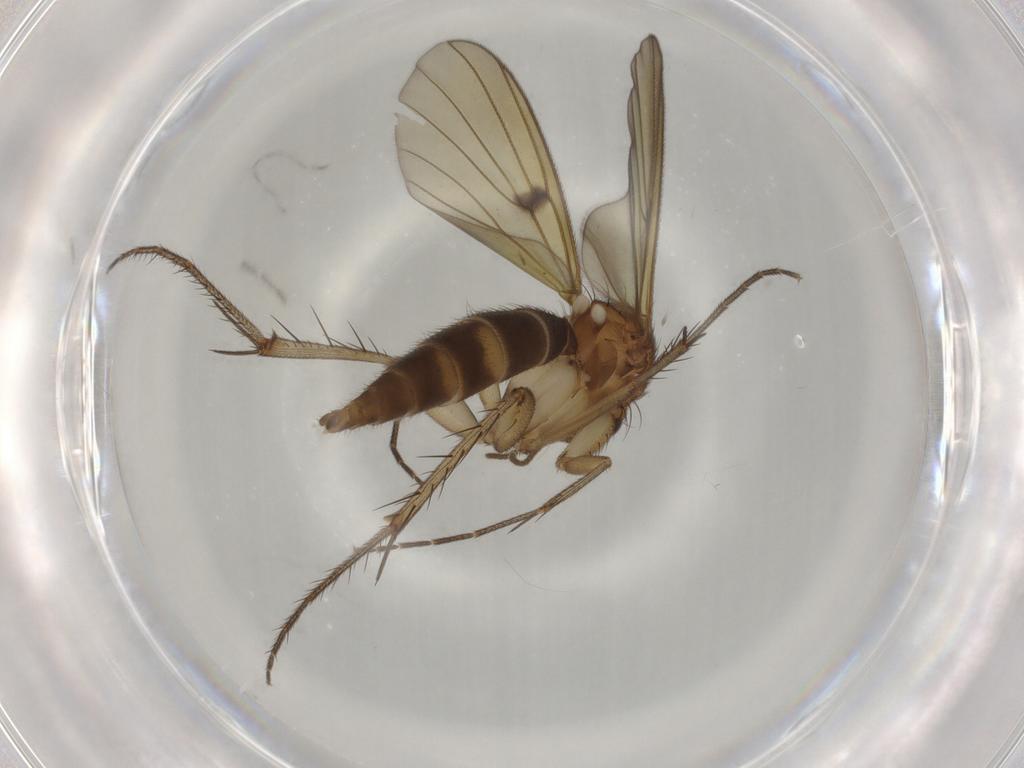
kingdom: Animalia
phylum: Arthropoda
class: Insecta
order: Diptera
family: Mycetophilidae
